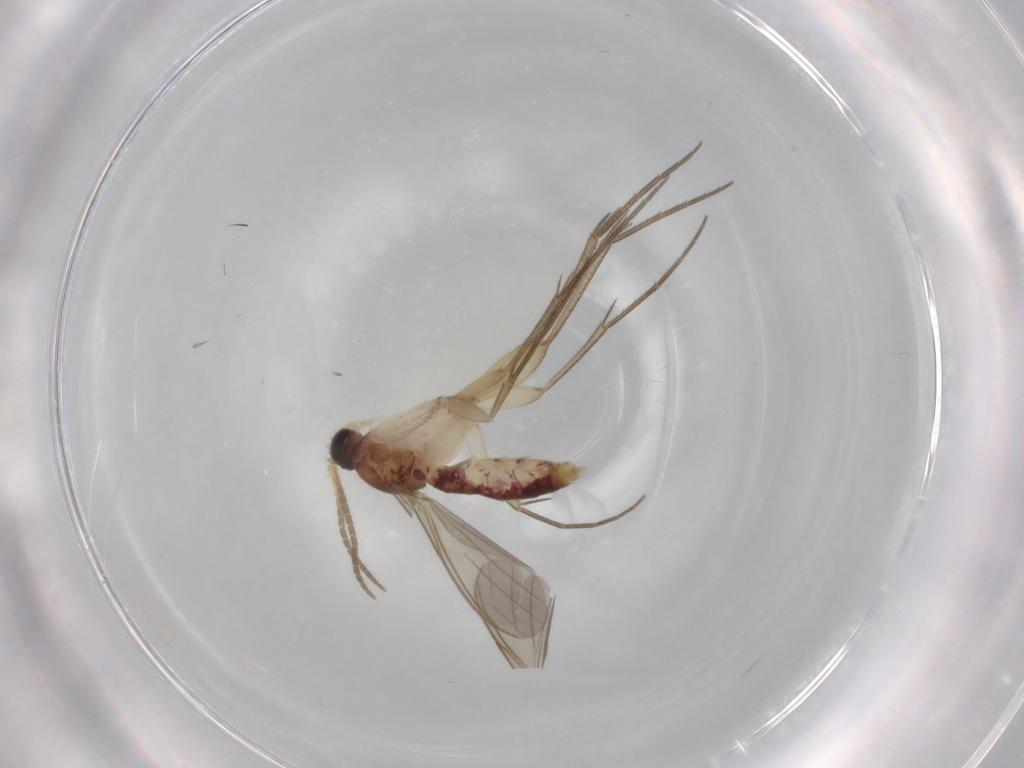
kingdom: Animalia
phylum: Arthropoda
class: Insecta
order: Diptera
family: Mycetophilidae
